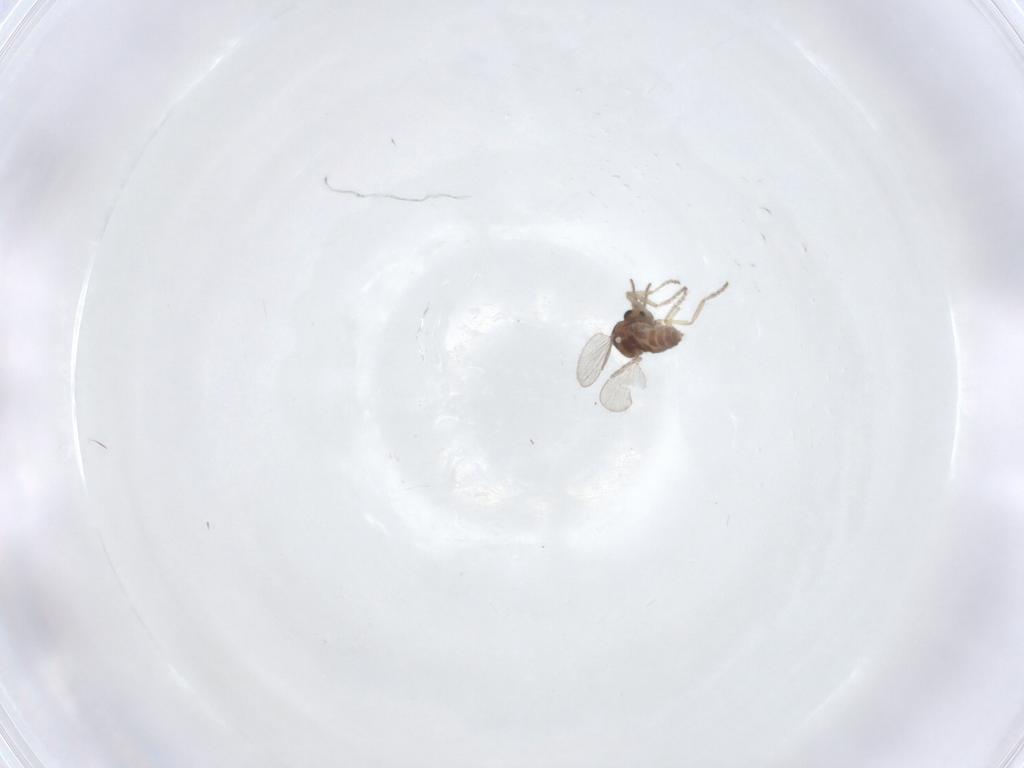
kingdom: Animalia
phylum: Arthropoda
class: Insecta
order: Diptera
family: Ceratopogonidae
